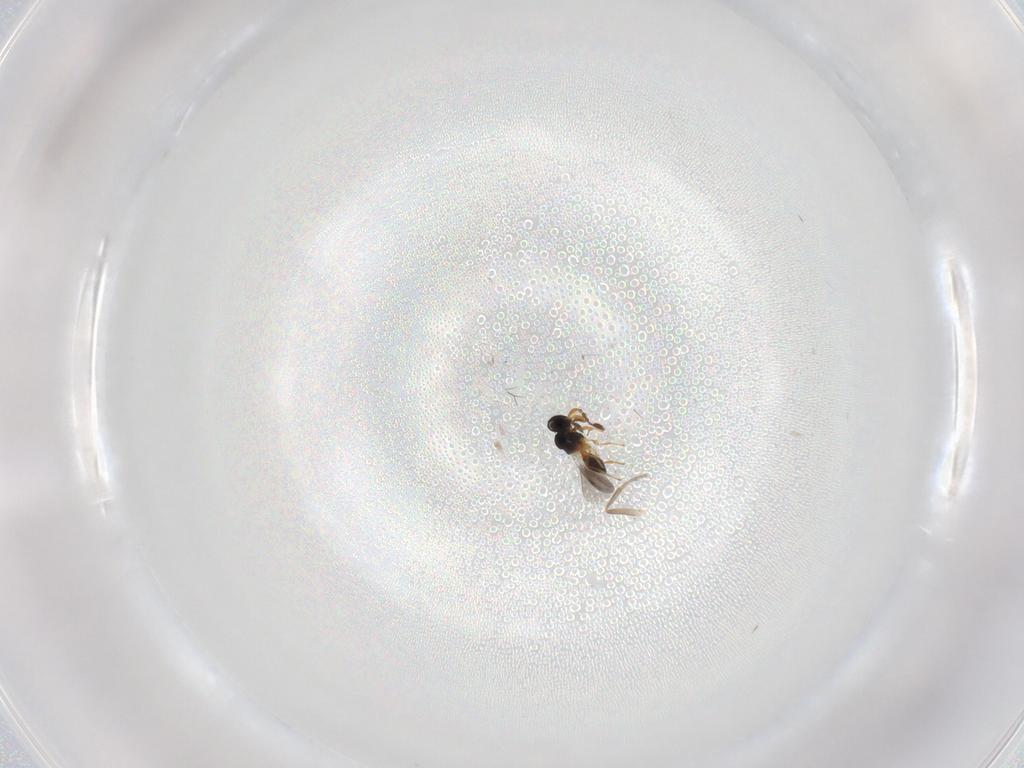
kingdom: Animalia
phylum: Arthropoda
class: Insecta
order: Hymenoptera
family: Platygastridae
